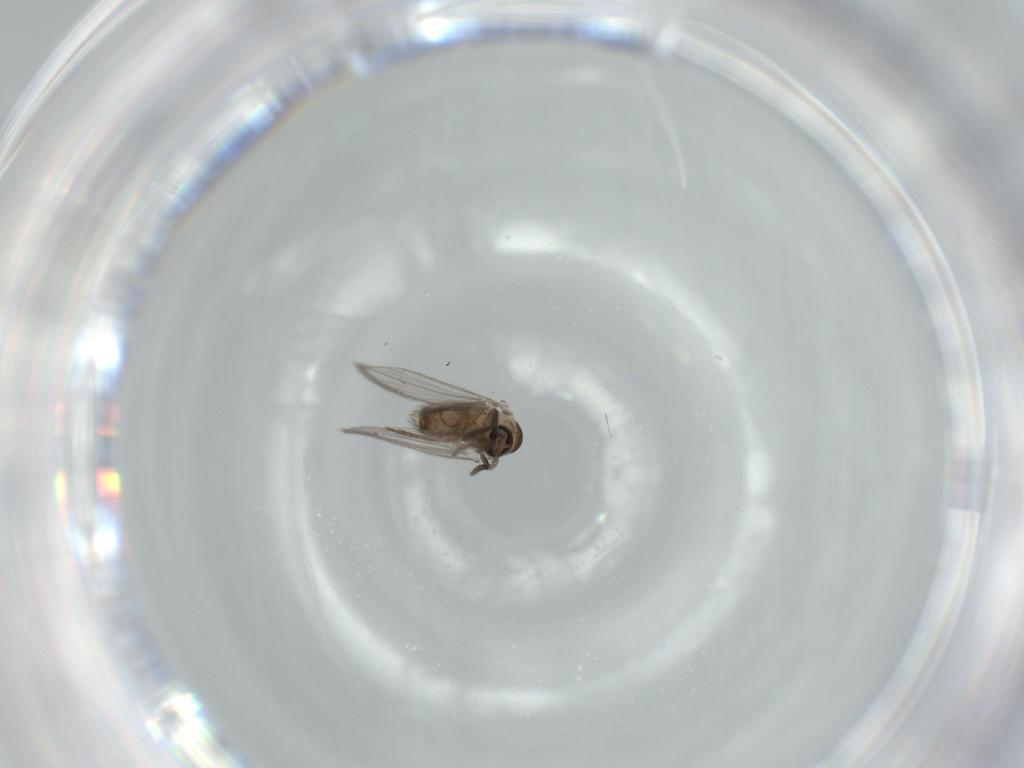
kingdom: Animalia
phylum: Arthropoda
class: Insecta
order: Diptera
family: Psychodidae
